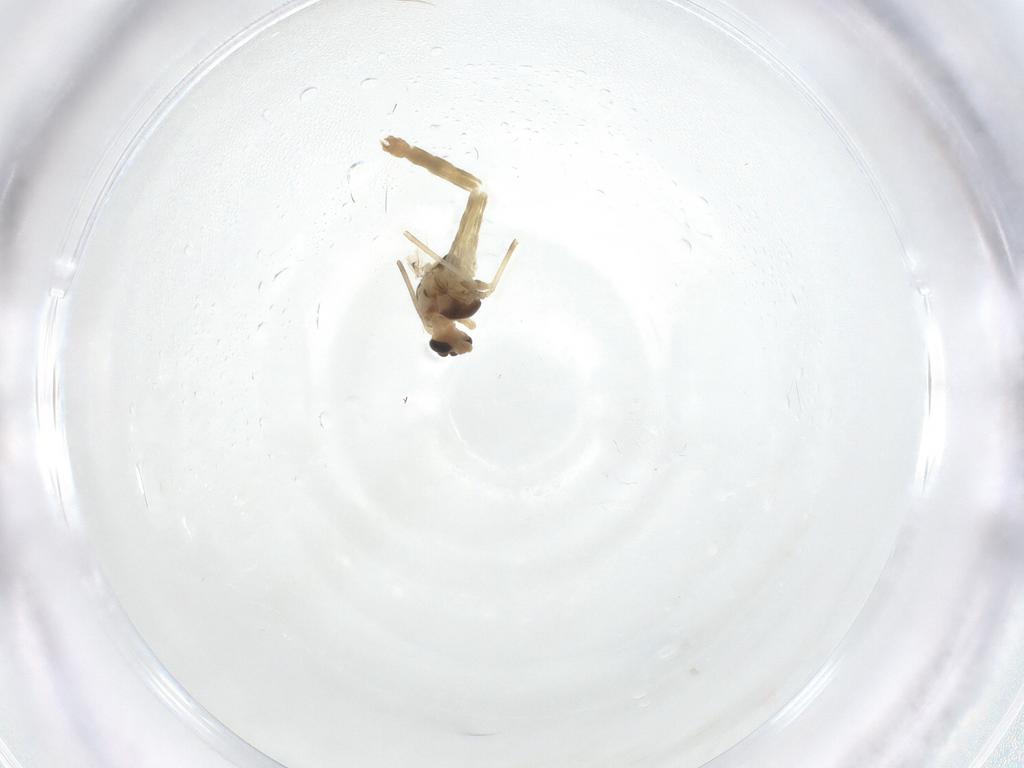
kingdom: Animalia
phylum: Arthropoda
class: Insecta
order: Diptera
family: Chironomidae
